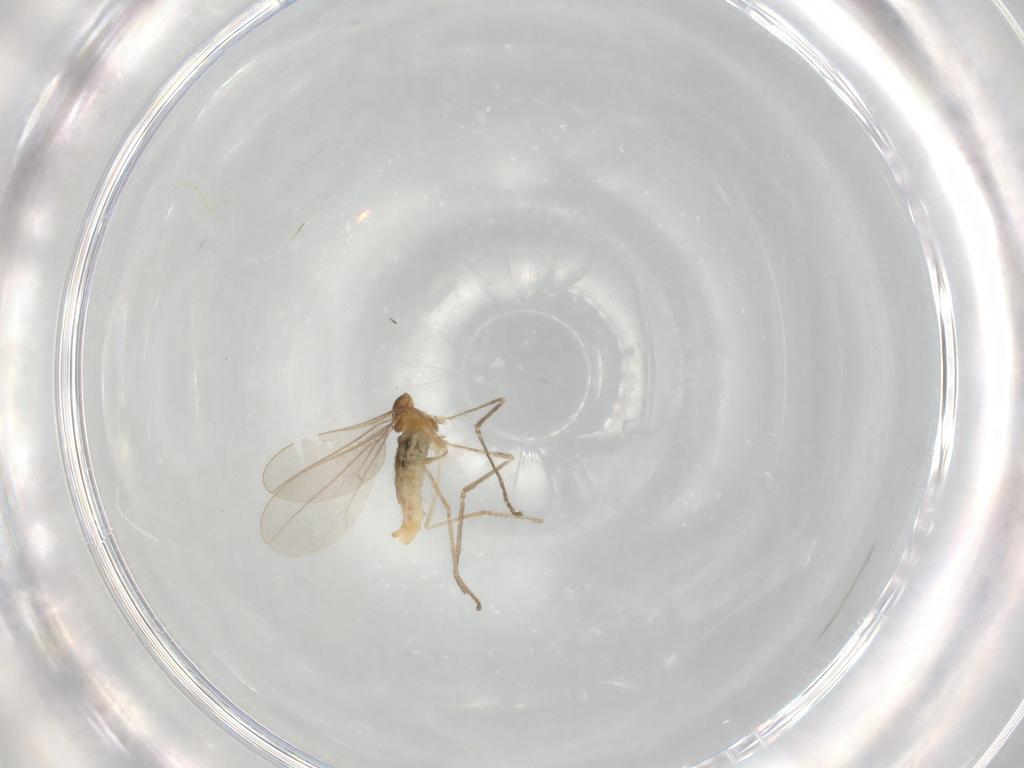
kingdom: Animalia
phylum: Arthropoda
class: Insecta
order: Diptera
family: Cecidomyiidae
